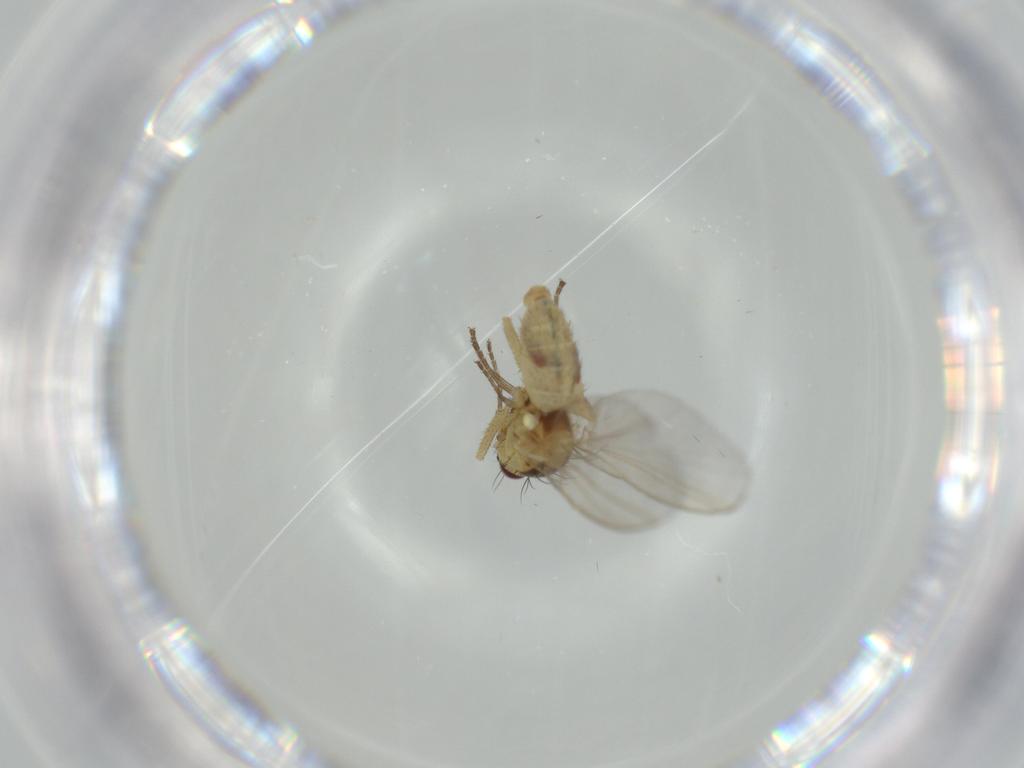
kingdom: Animalia
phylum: Arthropoda
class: Insecta
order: Diptera
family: Hybotidae
